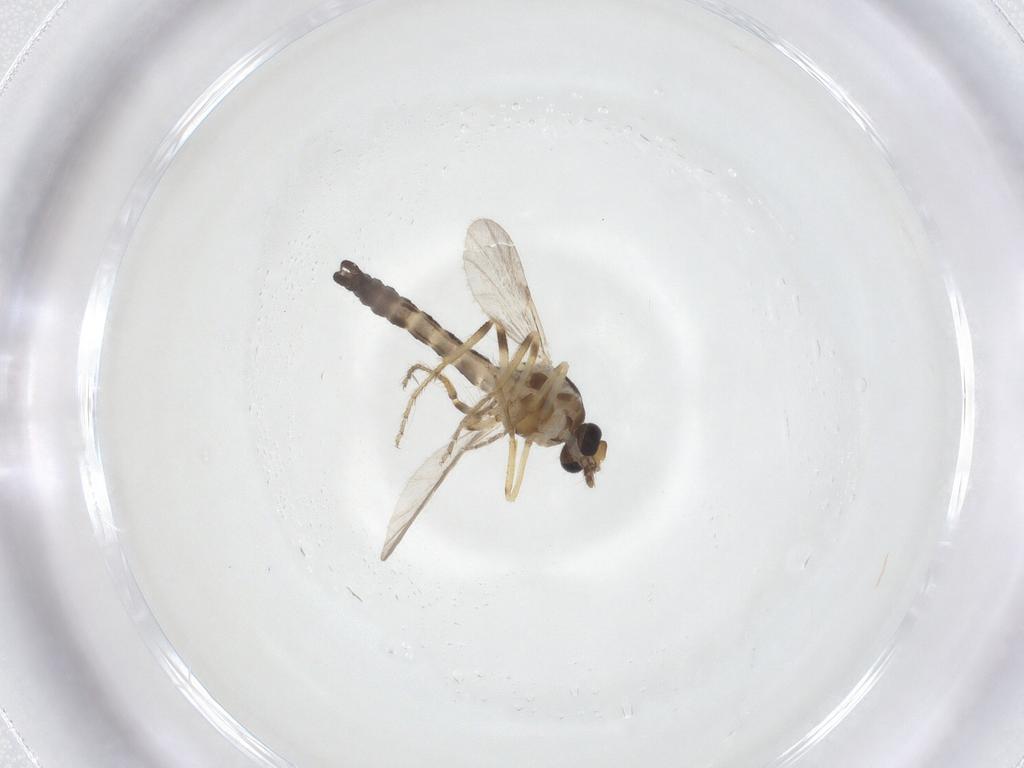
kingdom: Animalia
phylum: Arthropoda
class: Insecta
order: Diptera
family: Ceratopogonidae
